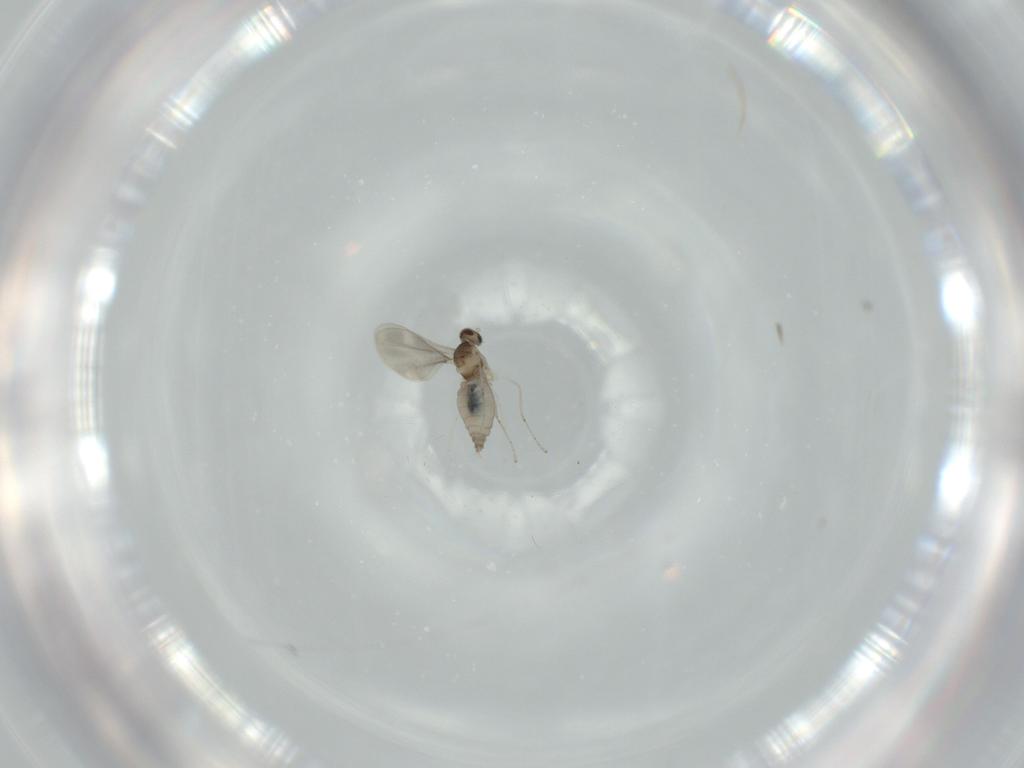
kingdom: Animalia
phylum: Arthropoda
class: Insecta
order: Diptera
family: Cecidomyiidae
